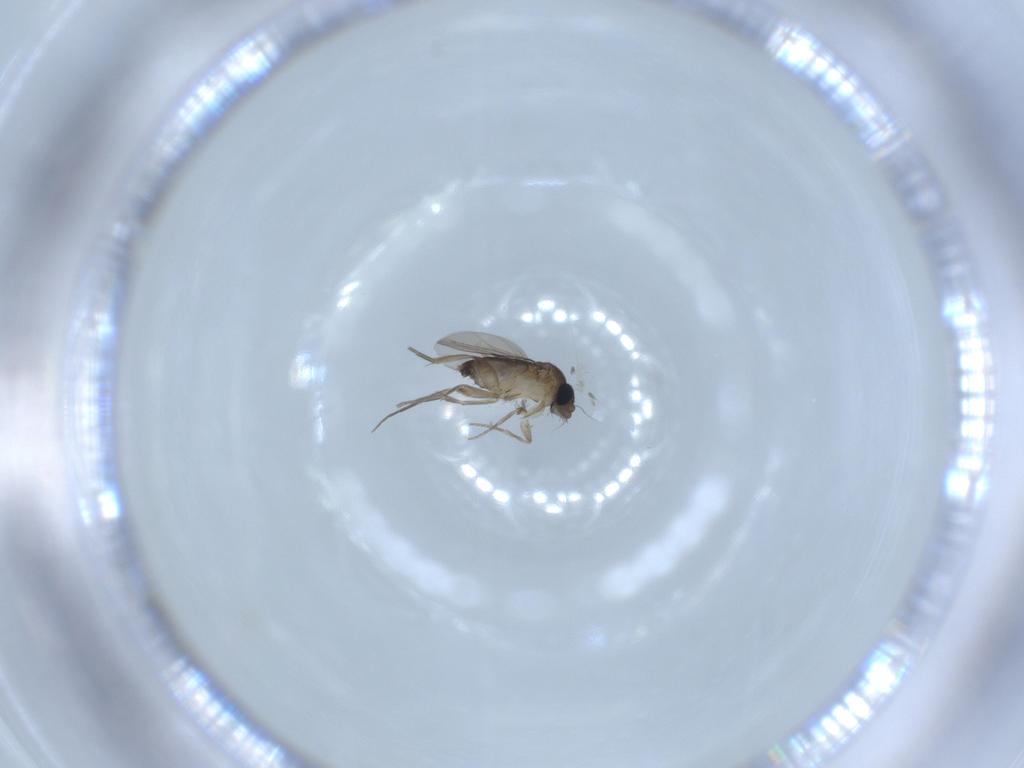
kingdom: Animalia
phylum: Arthropoda
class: Insecta
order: Diptera
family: Phoridae
